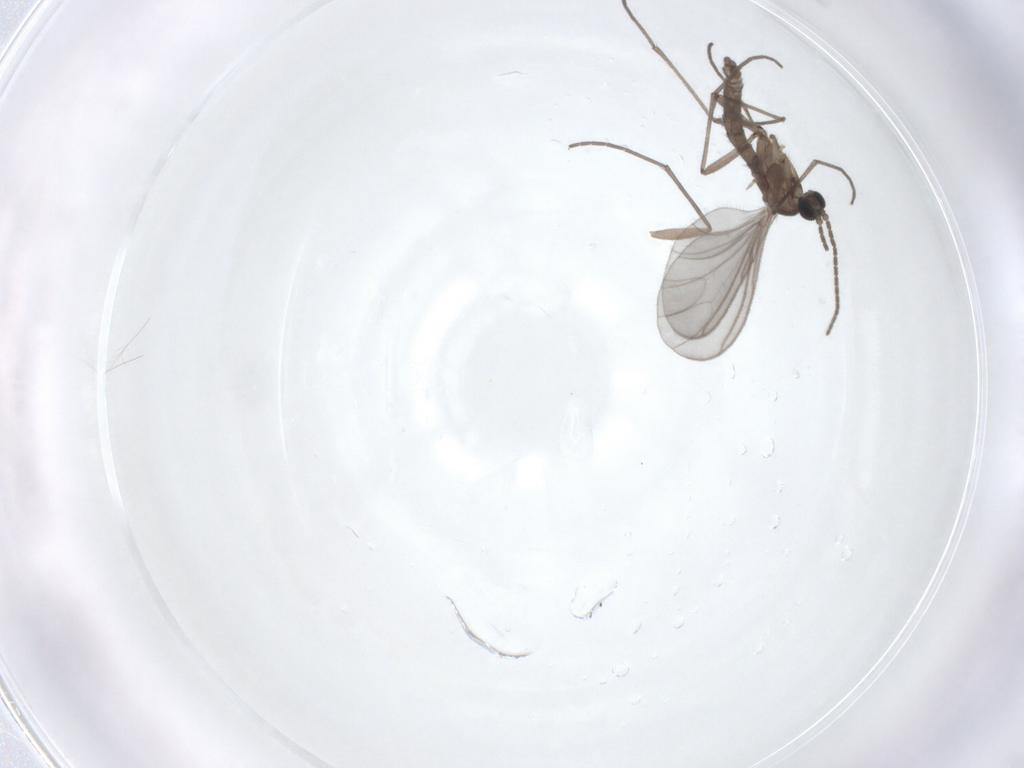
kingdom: Animalia
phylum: Arthropoda
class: Insecta
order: Diptera
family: Sciaridae
